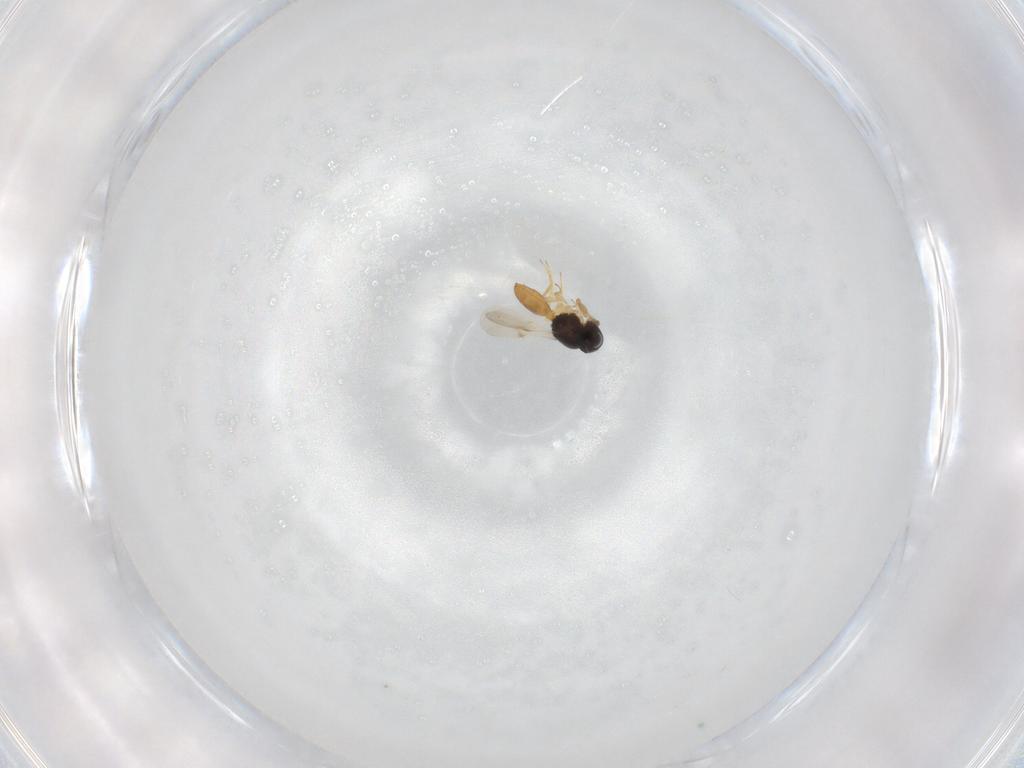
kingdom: Animalia
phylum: Arthropoda
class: Insecta
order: Hymenoptera
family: Scelionidae
